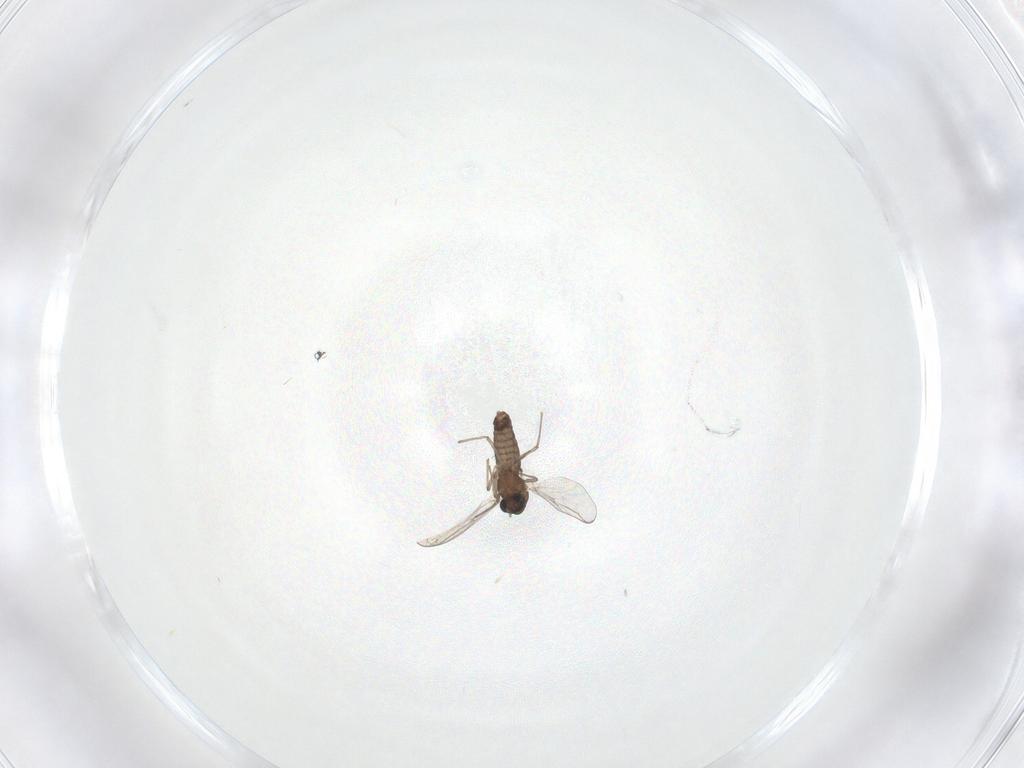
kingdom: Animalia
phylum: Arthropoda
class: Insecta
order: Diptera
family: Chironomidae
